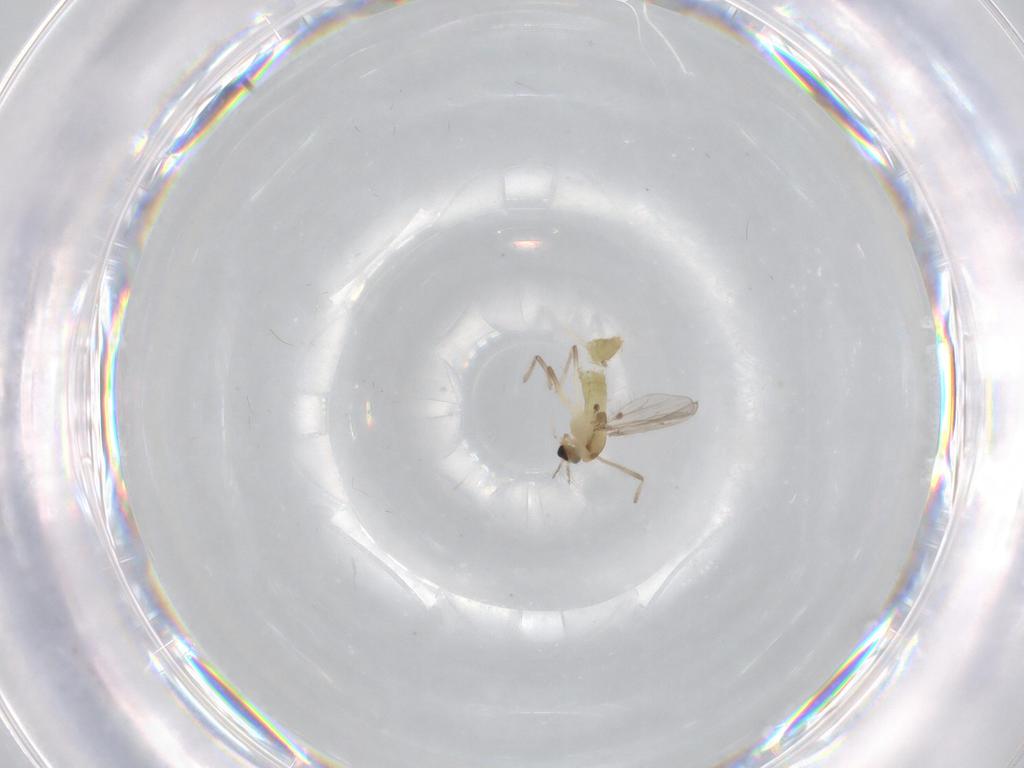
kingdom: Animalia
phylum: Arthropoda
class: Insecta
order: Diptera
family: Chironomidae
